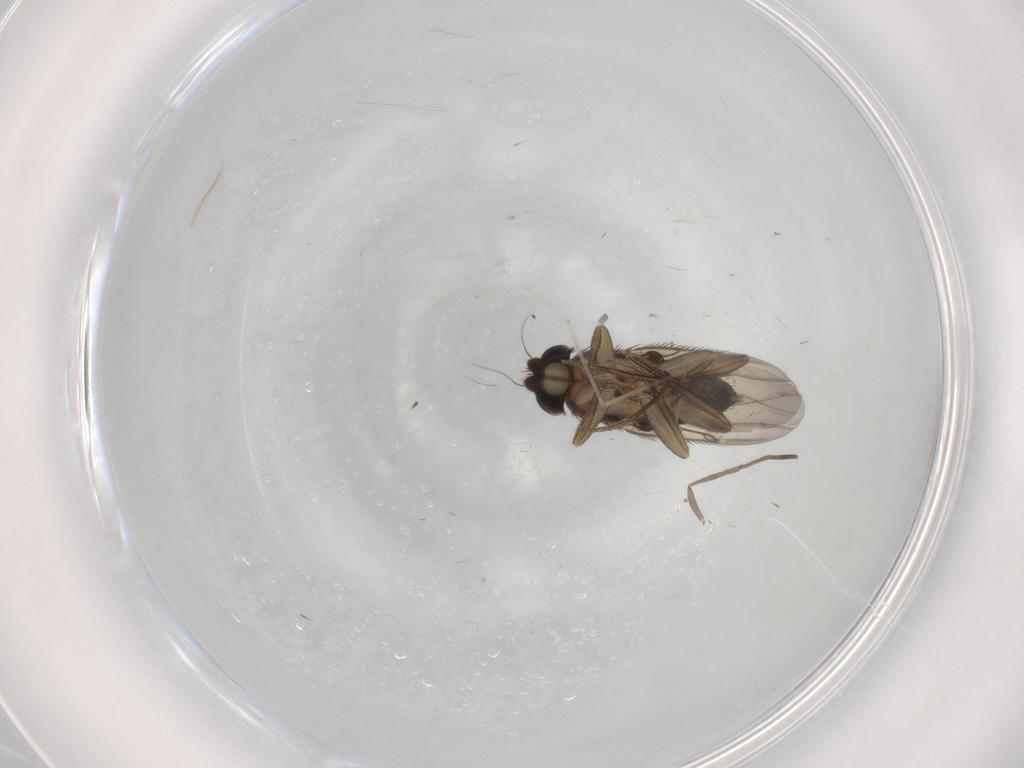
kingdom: Animalia
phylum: Arthropoda
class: Insecta
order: Diptera
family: Phoridae
